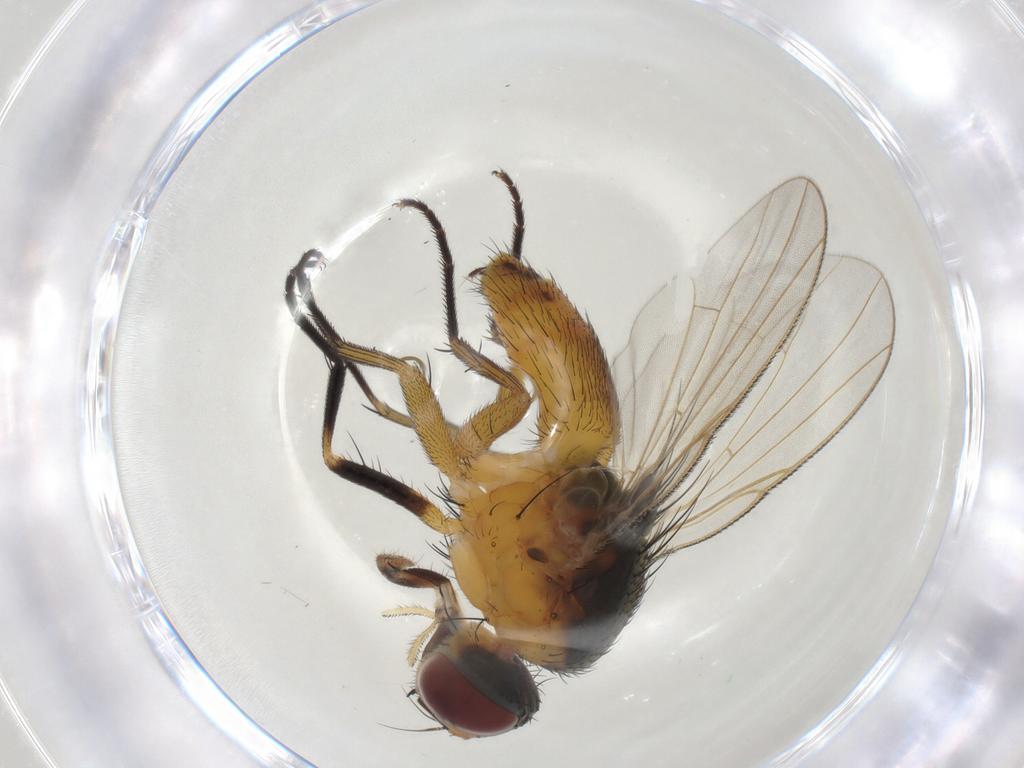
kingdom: Animalia
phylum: Arthropoda
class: Insecta
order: Diptera
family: Muscidae
